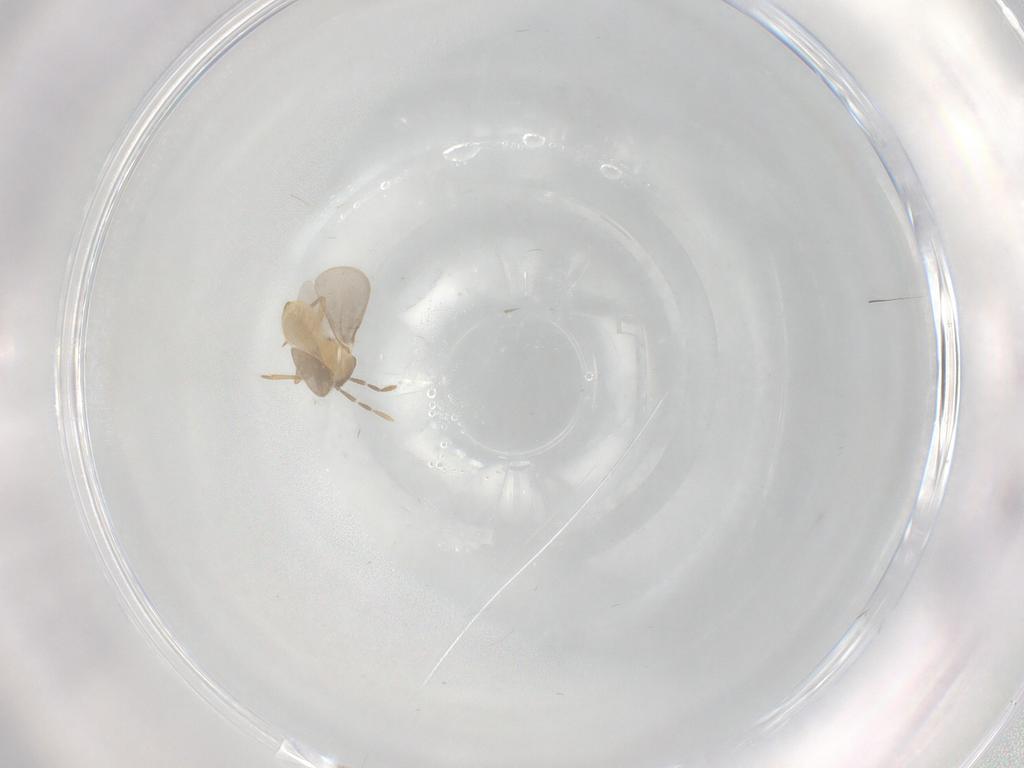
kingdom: Animalia
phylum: Arthropoda
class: Insecta
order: Hemiptera
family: Enicocephalidae
